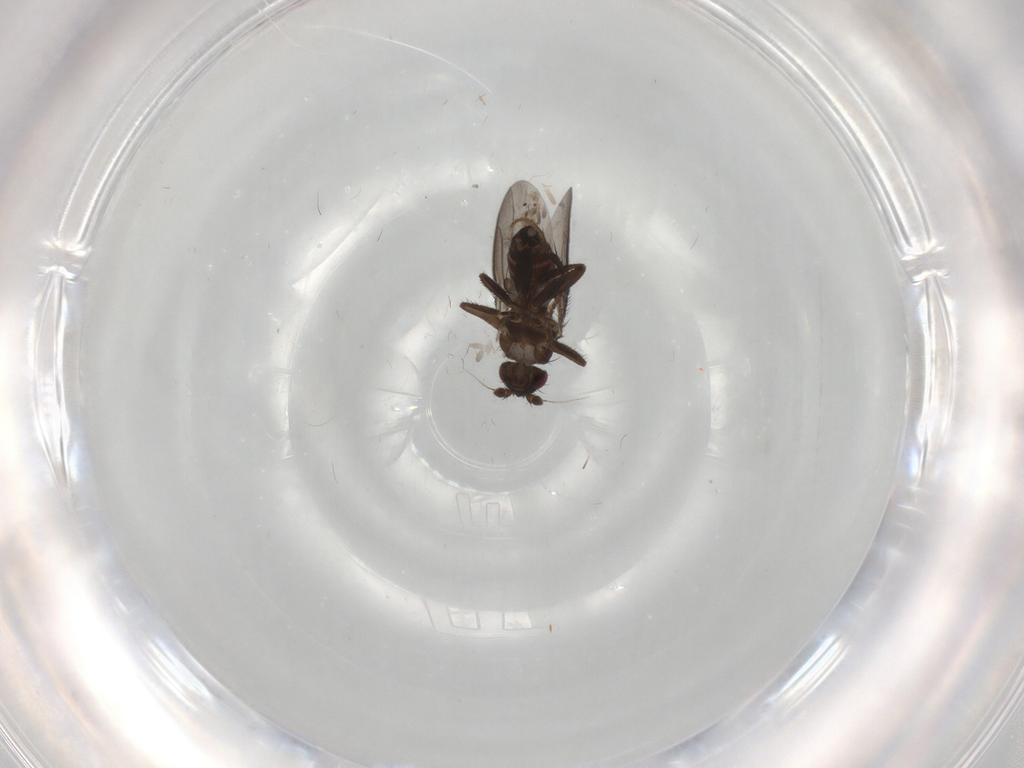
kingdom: Animalia
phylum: Arthropoda
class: Insecta
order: Diptera
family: Sphaeroceridae
